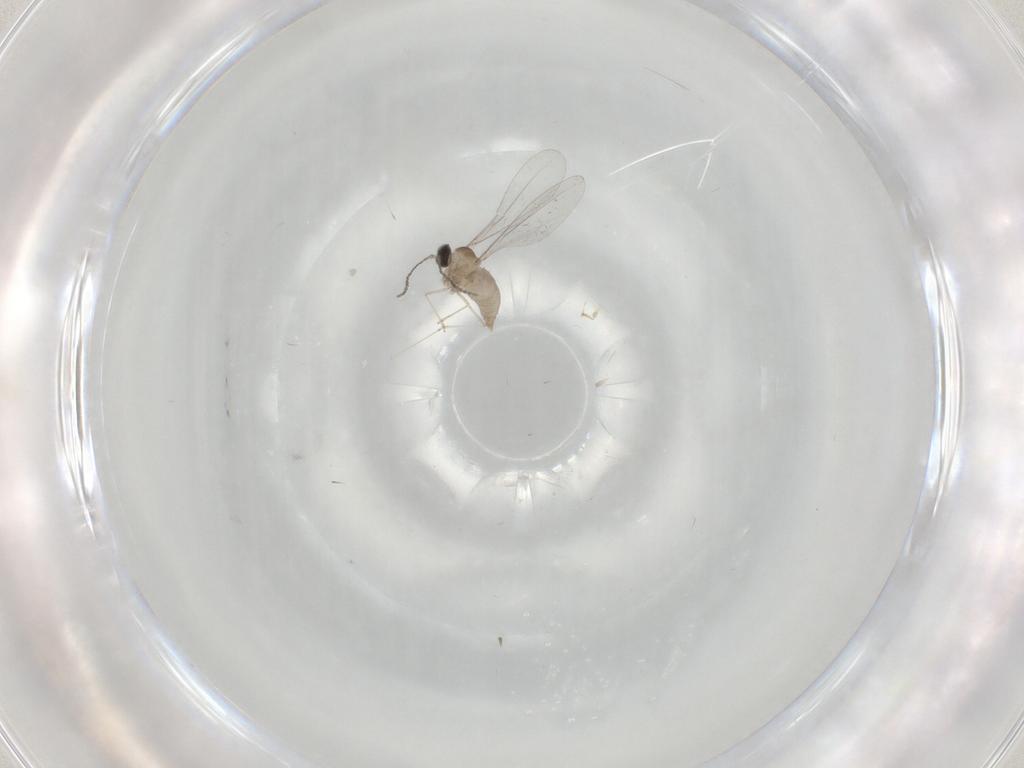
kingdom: Animalia
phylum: Arthropoda
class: Insecta
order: Diptera
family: Cecidomyiidae
